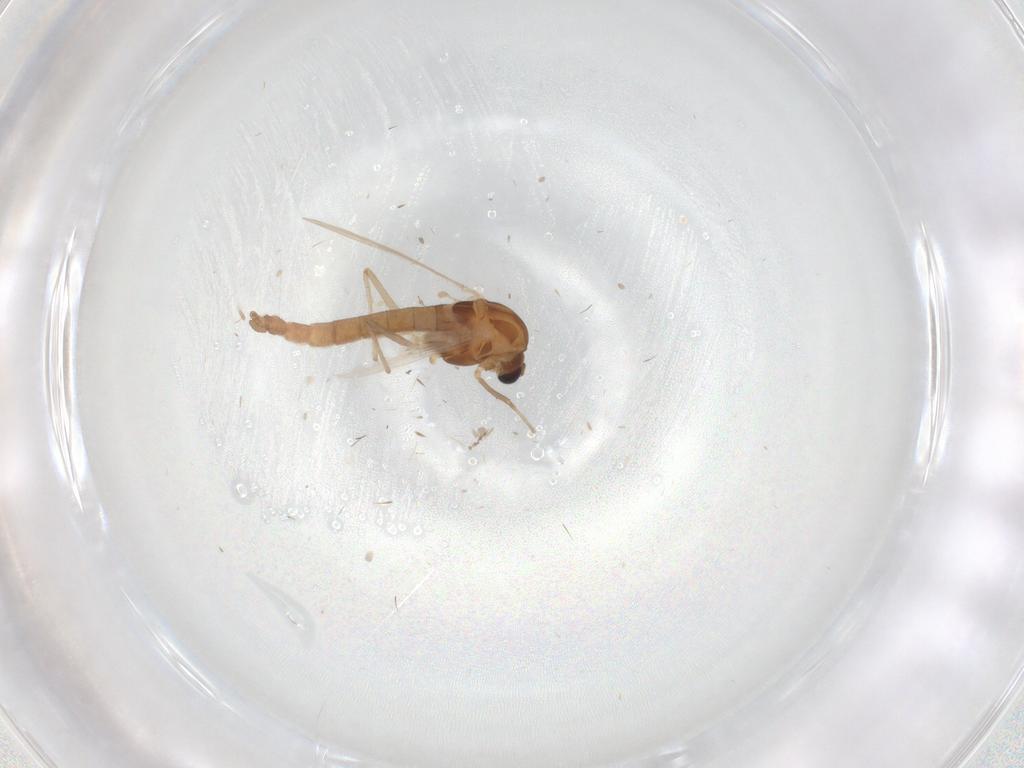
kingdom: Animalia
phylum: Arthropoda
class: Insecta
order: Diptera
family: Chironomidae
